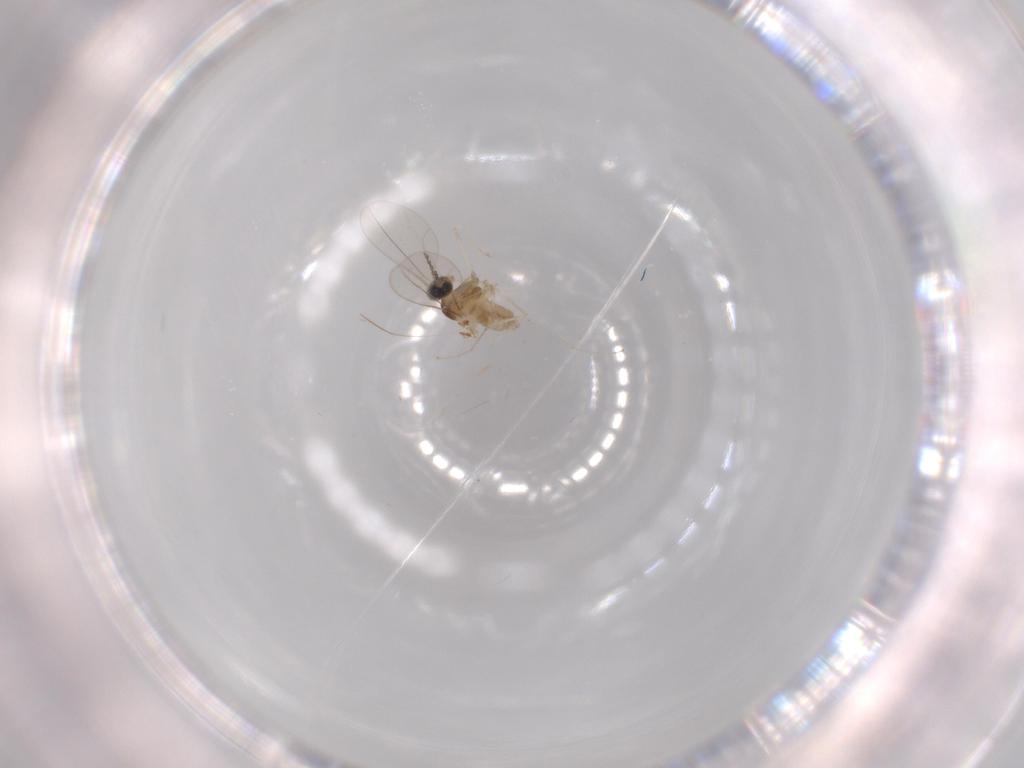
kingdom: Animalia
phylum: Arthropoda
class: Insecta
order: Diptera
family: Cecidomyiidae
